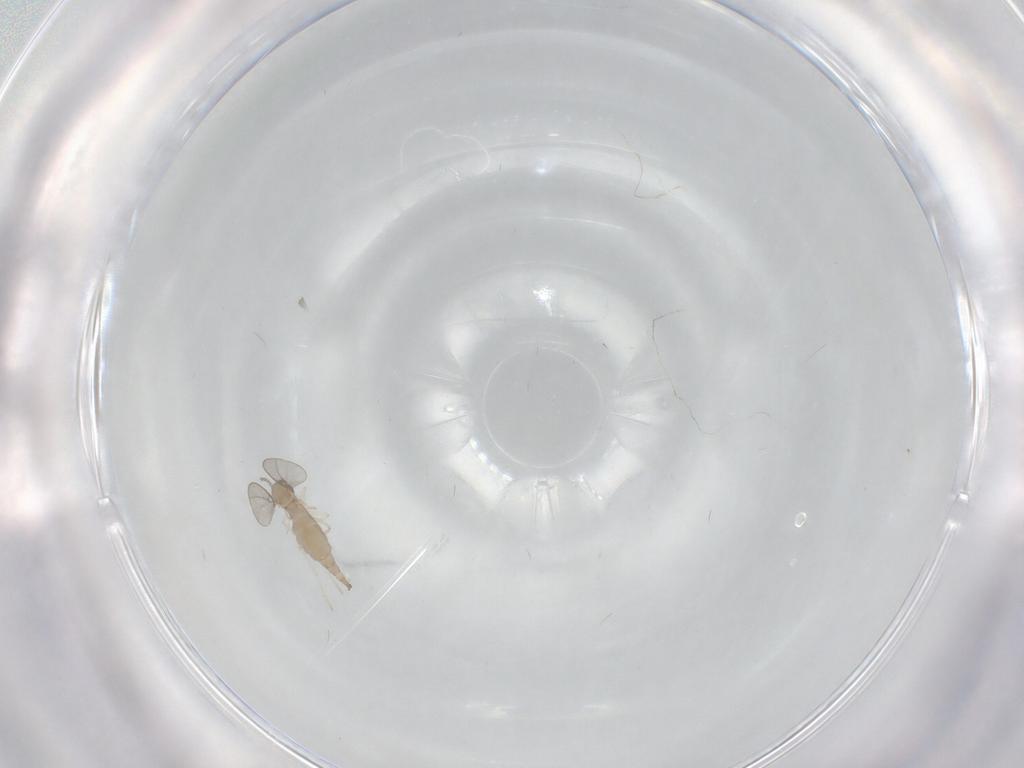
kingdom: Animalia
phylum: Arthropoda
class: Insecta
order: Diptera
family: Cecidomyiidae
